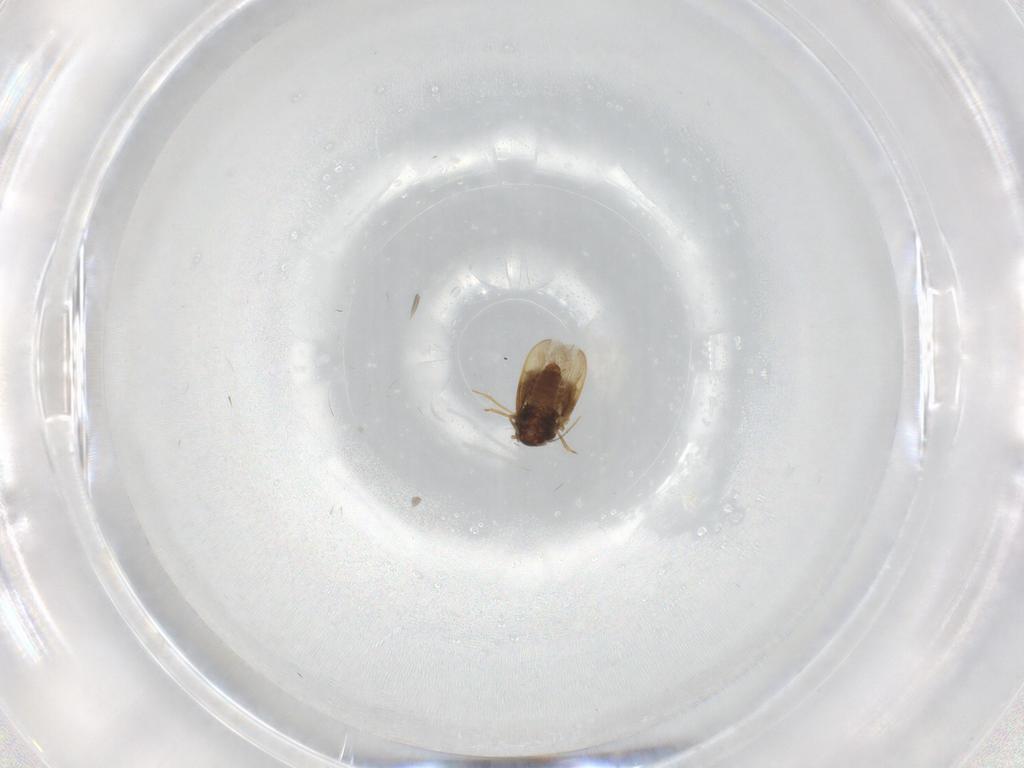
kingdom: Animalia
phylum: Arthropoda
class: Insecta
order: Hemiptera
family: Schizopteridae
